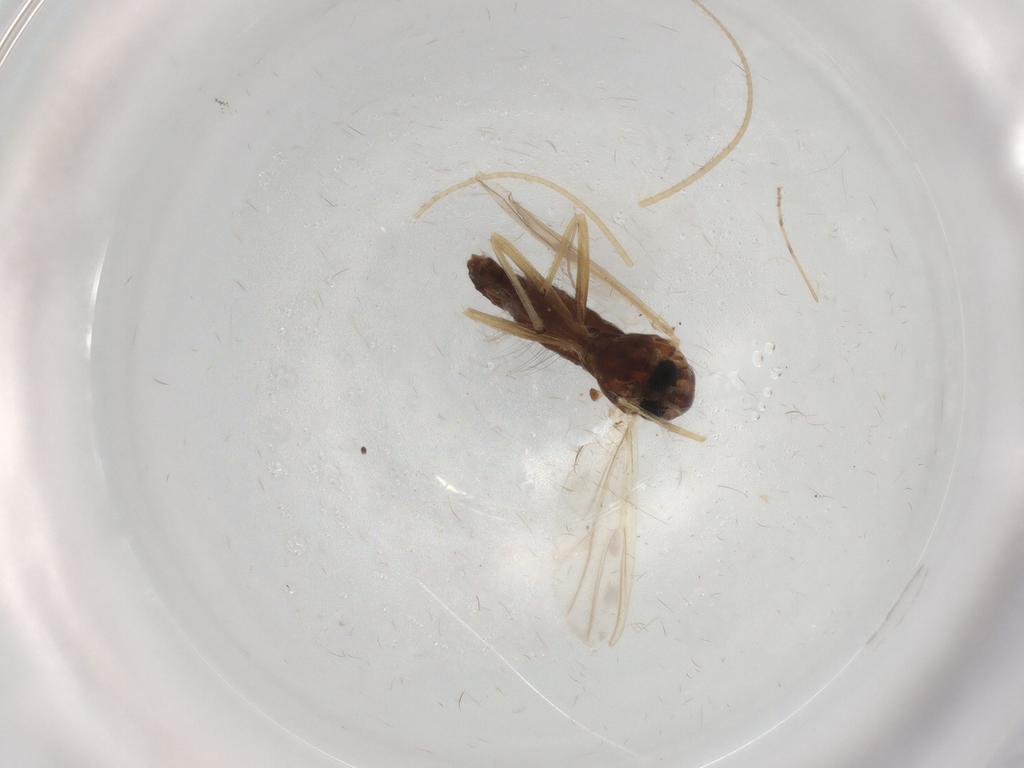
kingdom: Animalia
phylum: Arthropoda
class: Insecta
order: Diptera
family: Chironomidae
